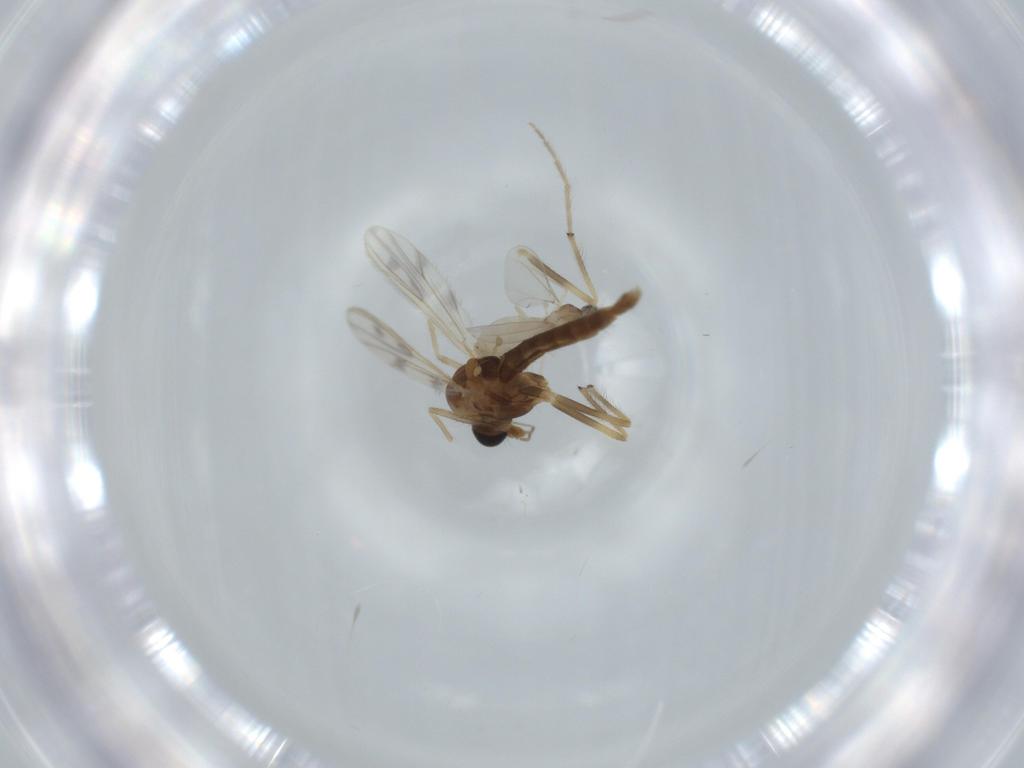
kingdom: Animalia
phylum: Arthropoda
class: Insecta
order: Diptera
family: Cecidomyiidae
